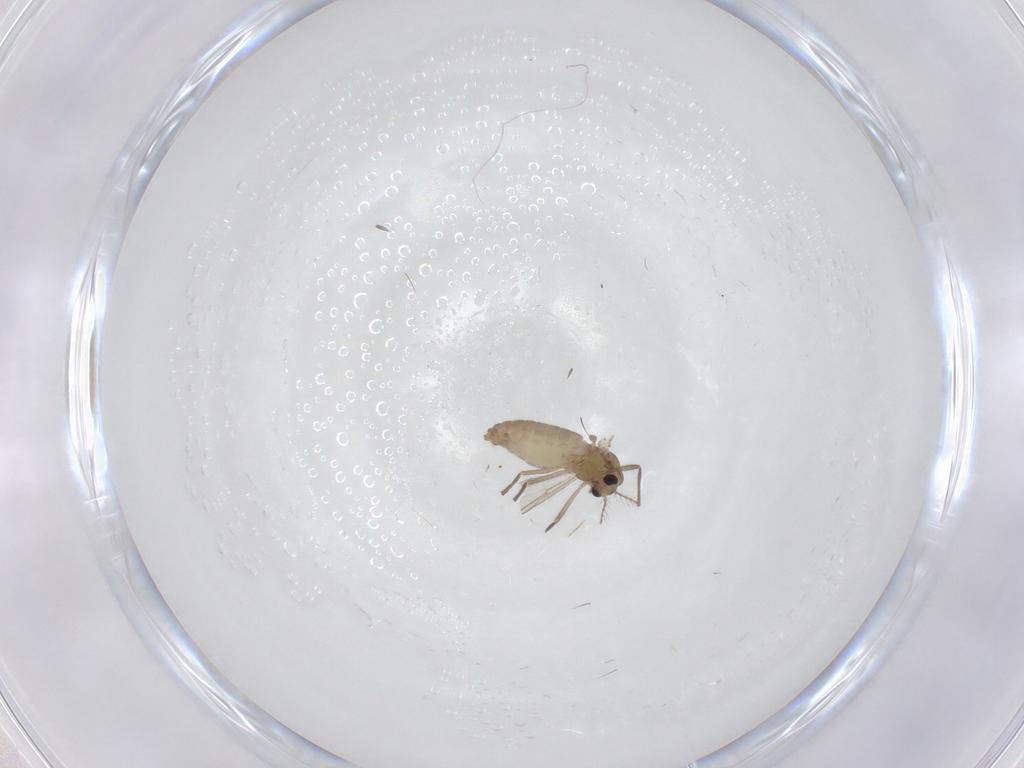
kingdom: Animalia
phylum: Arthropoda
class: Insecta
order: Diptera
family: Chironomidae
